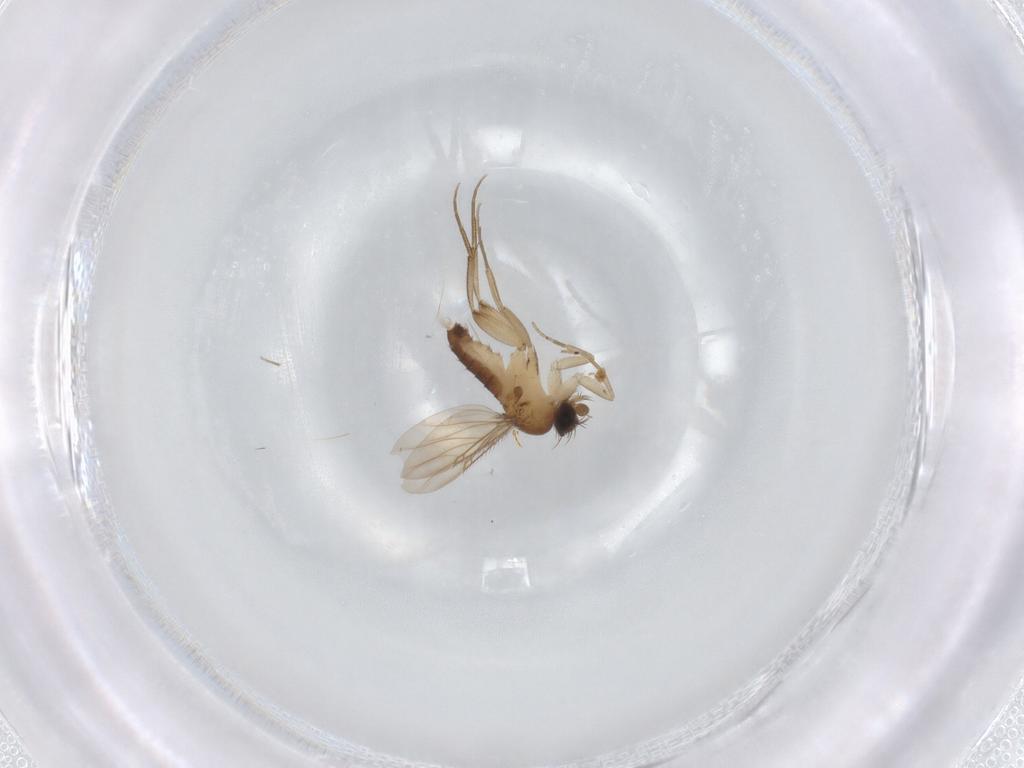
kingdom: Animalia
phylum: Arthropoda
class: Insecta
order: Diptera
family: Phoridae
